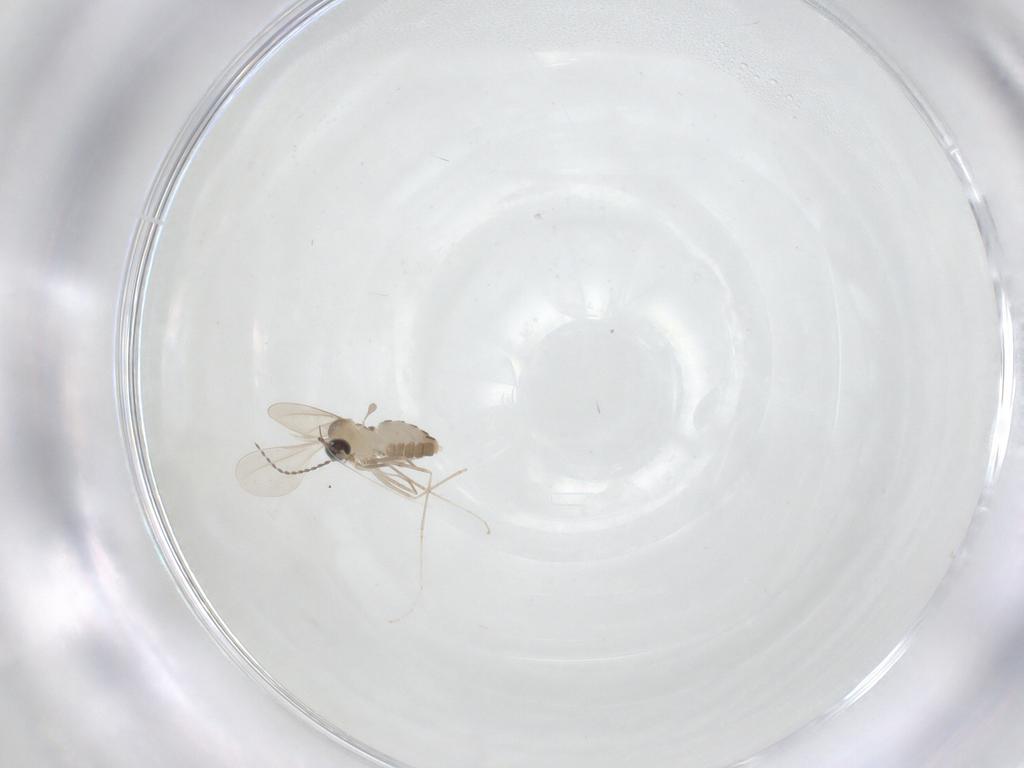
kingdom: Animalia
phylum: Arthropoda
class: Insecta
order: Diptera
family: Cecidomyiidae
